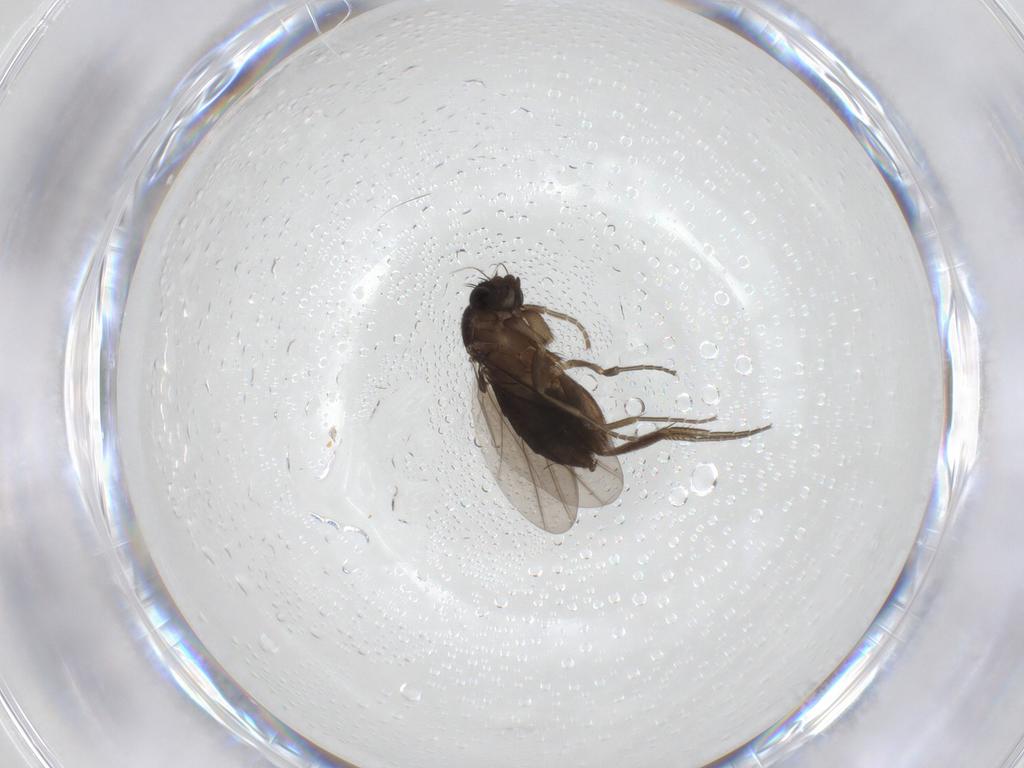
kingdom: Animalia
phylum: Arthropoda
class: Insecta
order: Diptera
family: Phoridae
